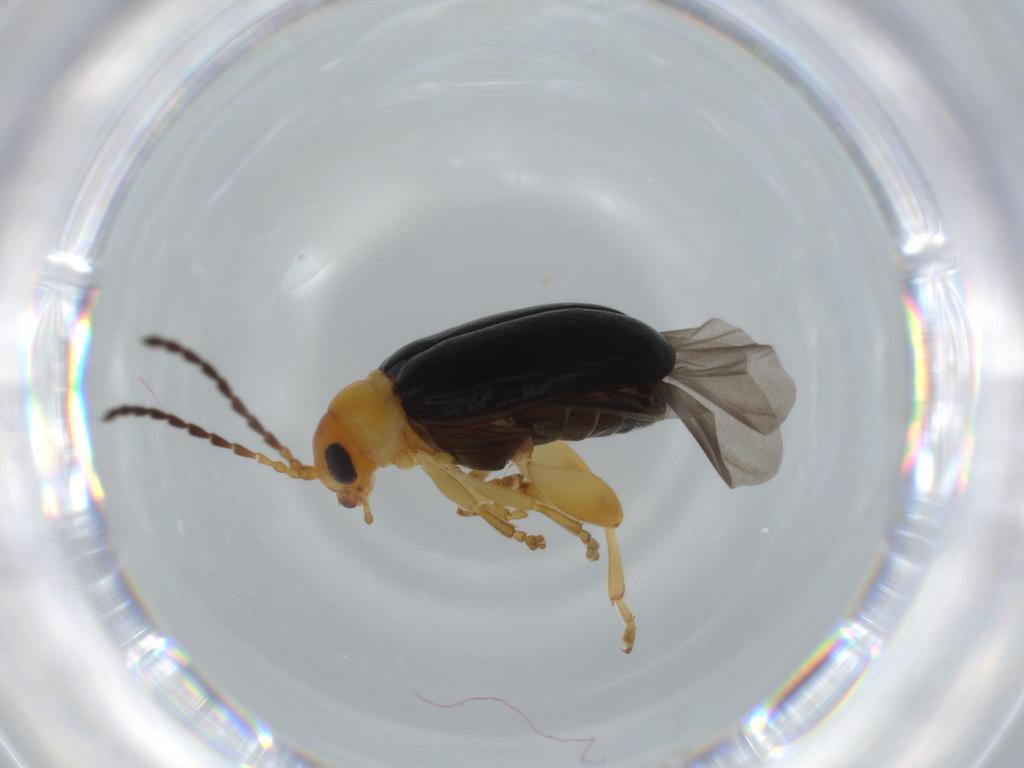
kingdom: Animalia
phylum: Arthropoda
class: Insecta
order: Coleoptera
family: Chrysomelidae
